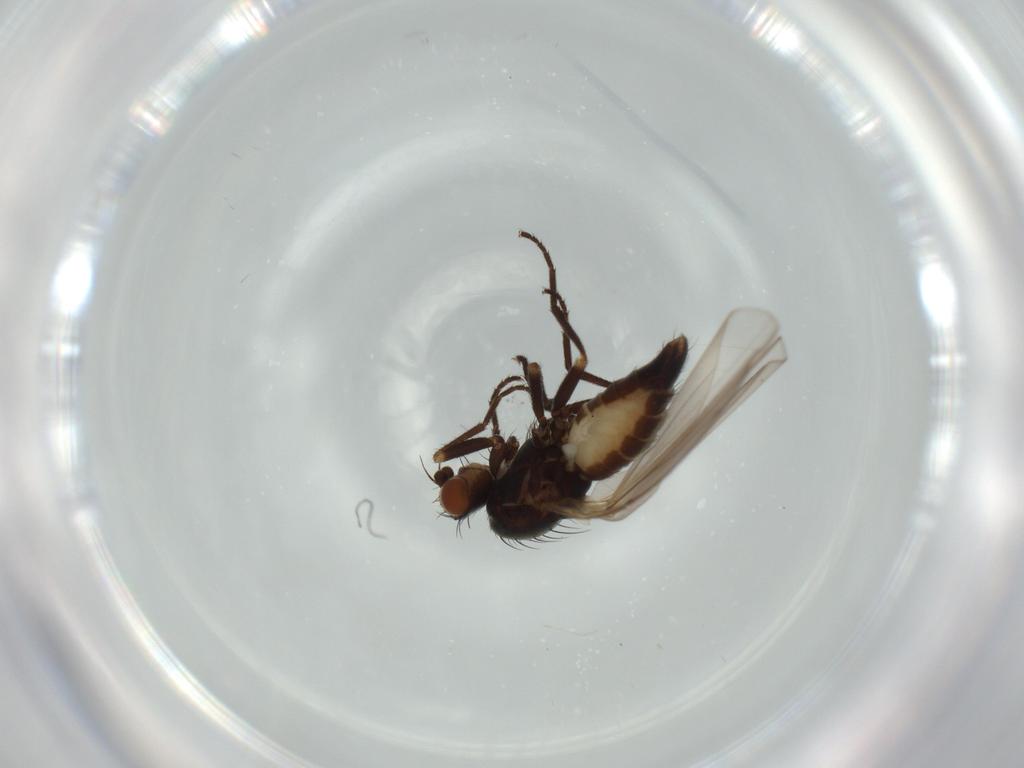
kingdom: Animalia
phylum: Arthropoda
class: Insecta
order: Diptera
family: Agromyzidae
